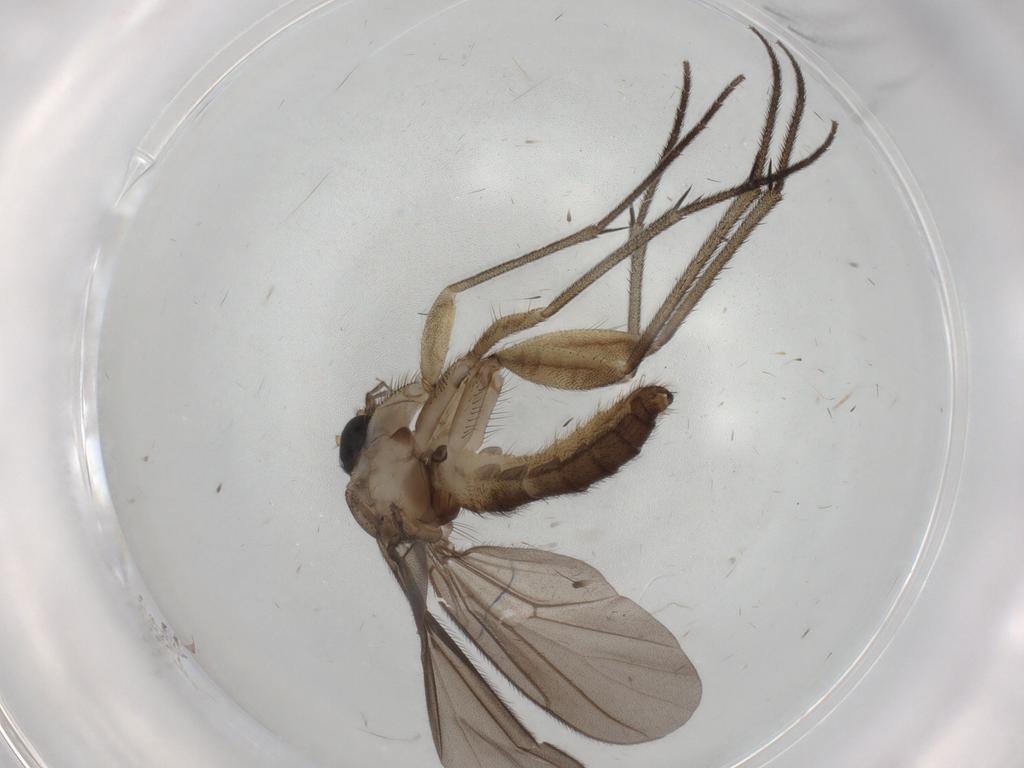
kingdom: Animalia
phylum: Arthropoda
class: Insecta
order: Diptera
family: Diadocidiidae
